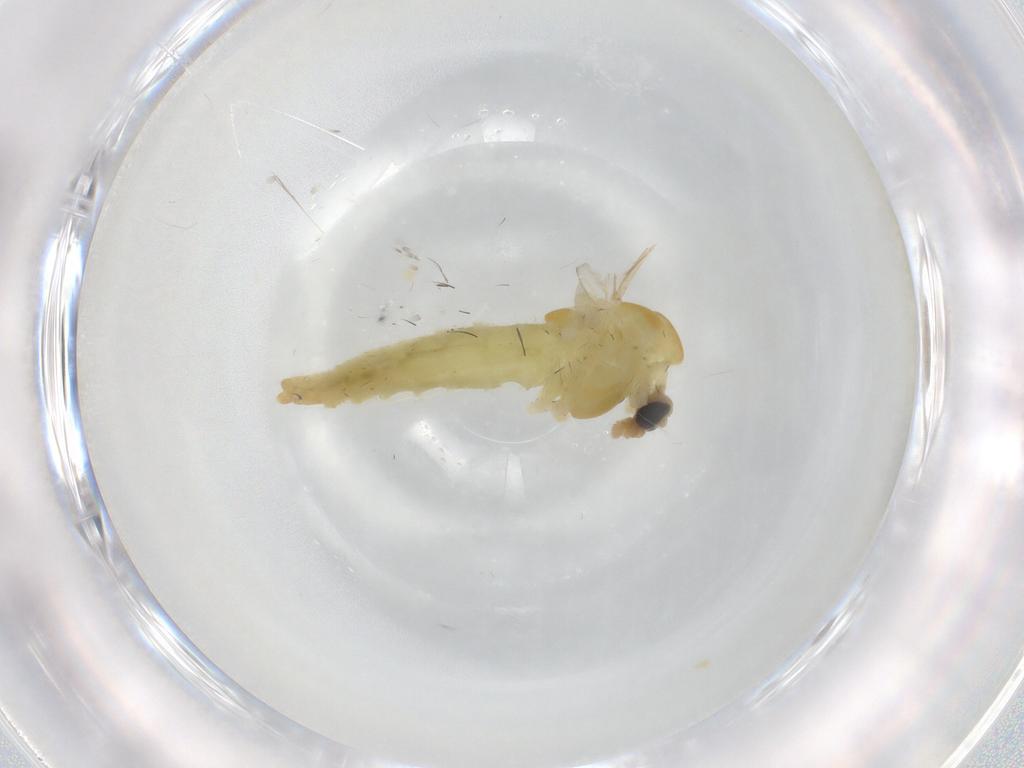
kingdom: Animalia
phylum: Arthropoda
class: Insecta
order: Diptera
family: Chironomidae
